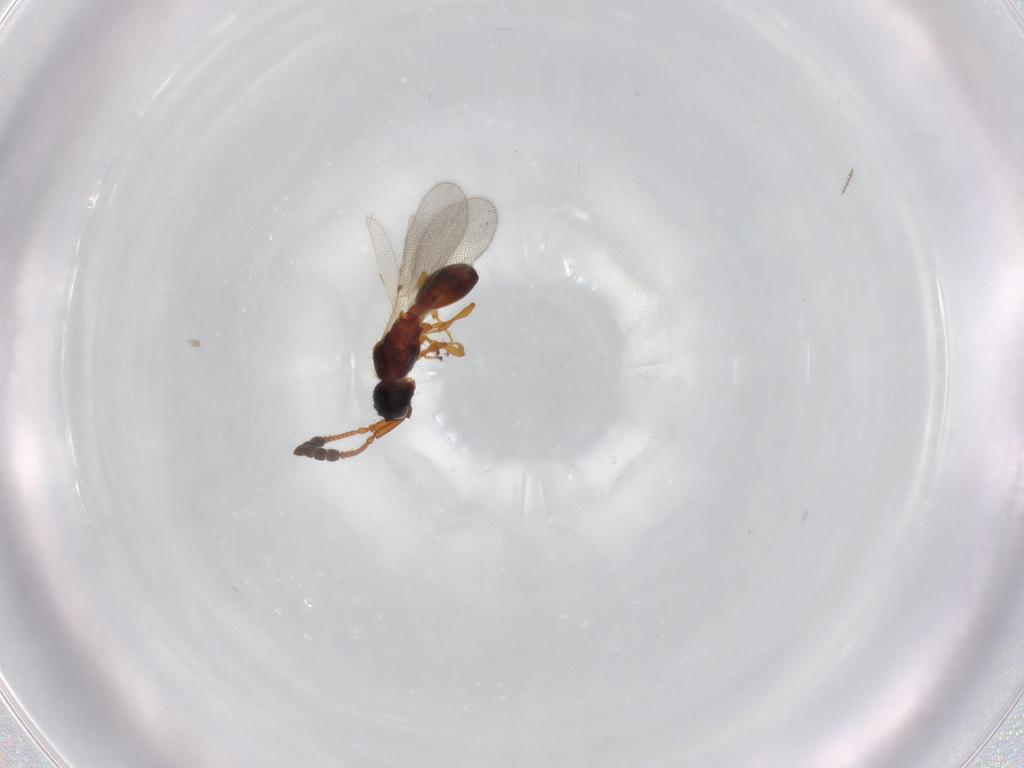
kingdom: Animalia
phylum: Arthropoda
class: Insecta
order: Hymenoptera
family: Diapriidae
